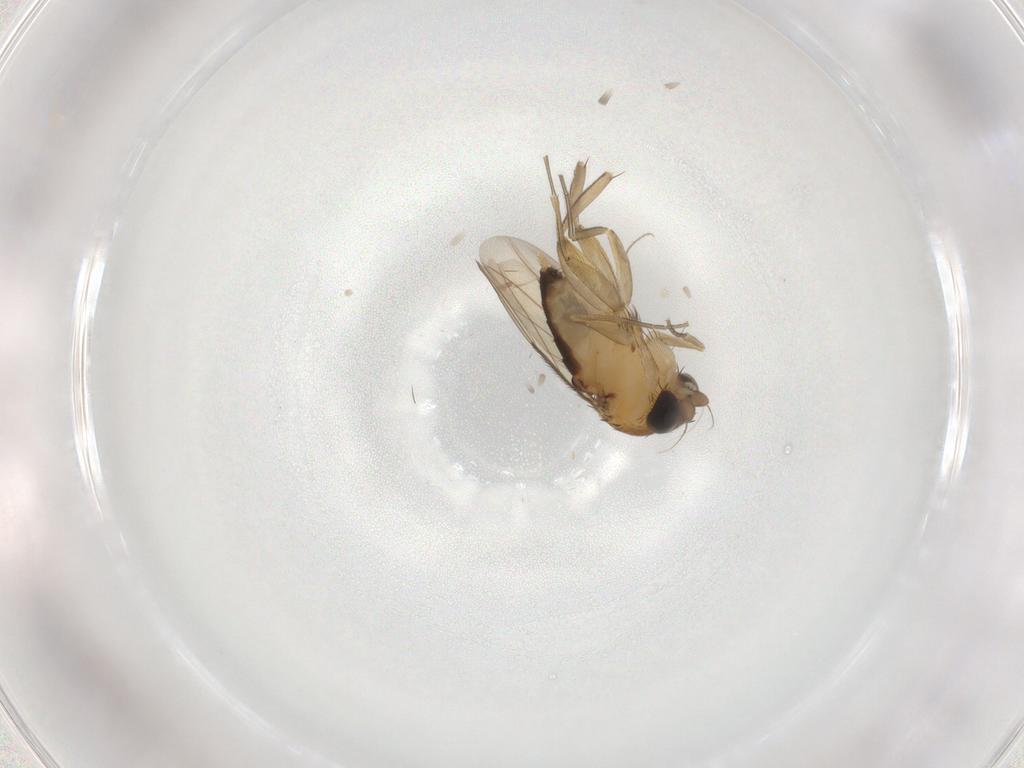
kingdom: Animalia
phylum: Arthropoda
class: Insecta
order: Diptera
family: Phoridae
